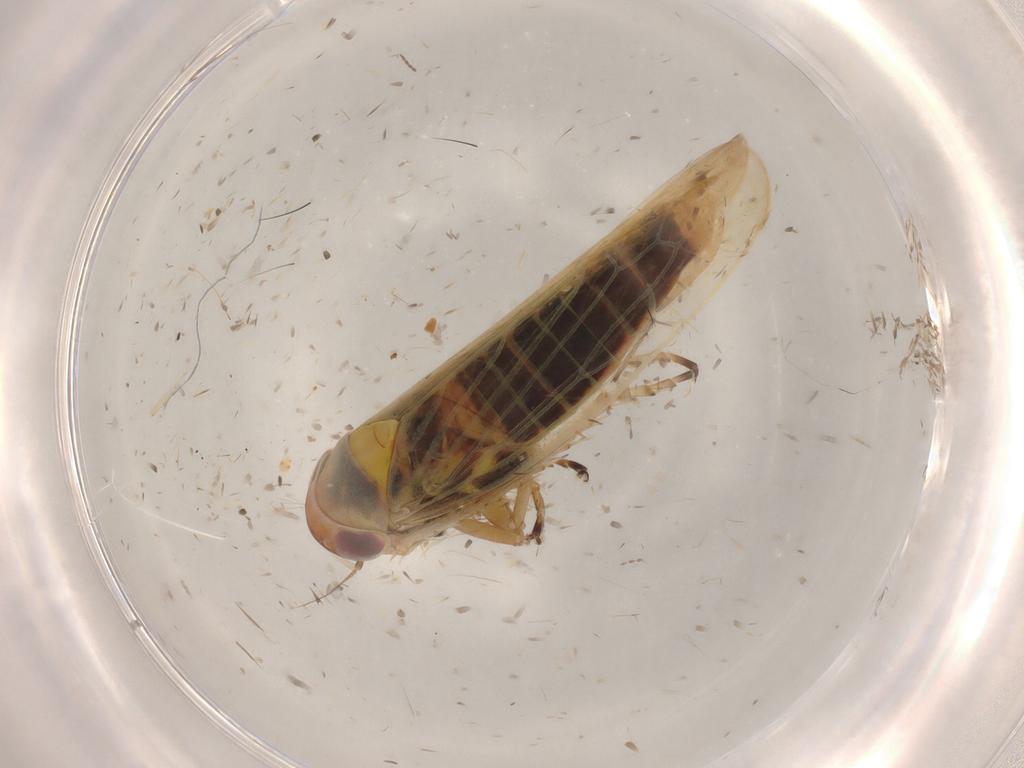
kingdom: Animalia
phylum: Arthropoda
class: Insecta
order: Hemiptera
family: Cicadellidae
